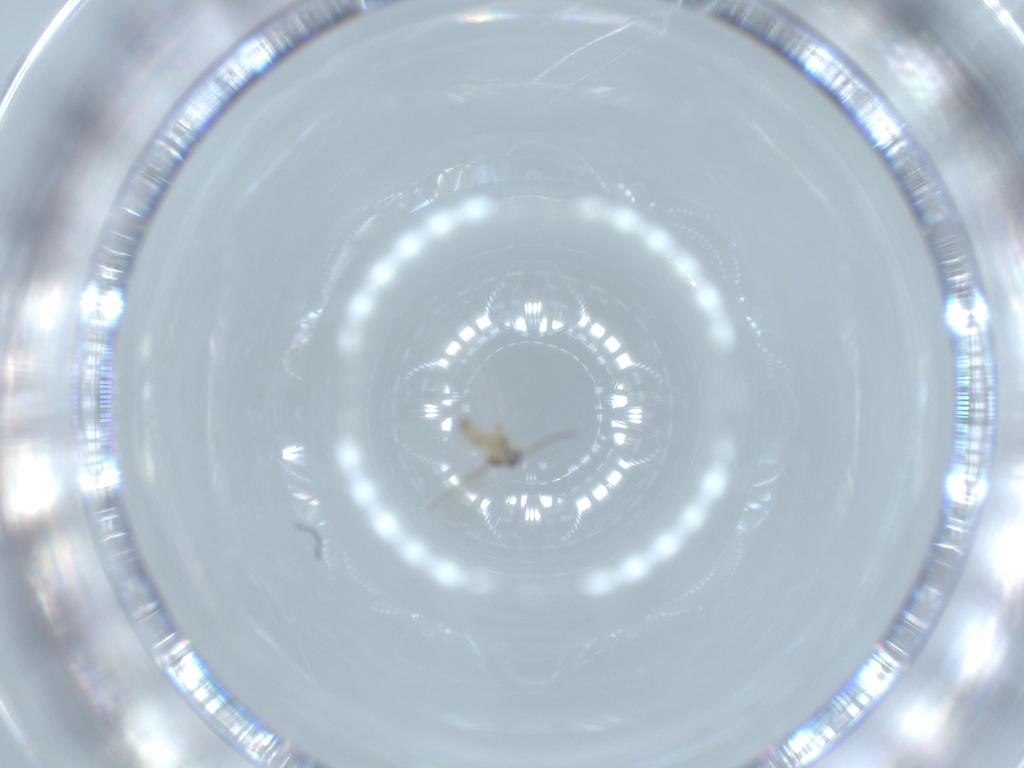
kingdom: Animalia
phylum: Arthropoda
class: Insecta
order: Diptera
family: Cecidomyiidae
